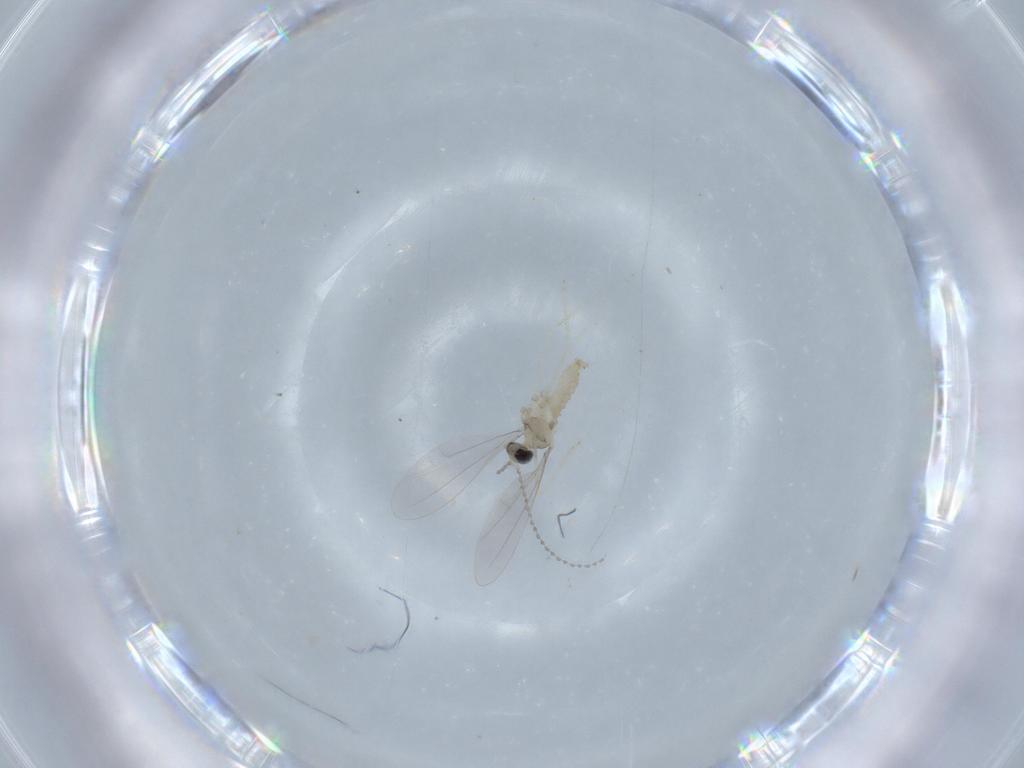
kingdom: Animalia
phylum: Arthropoda
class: Insecta
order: Diptera
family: Cecidomyiidae
